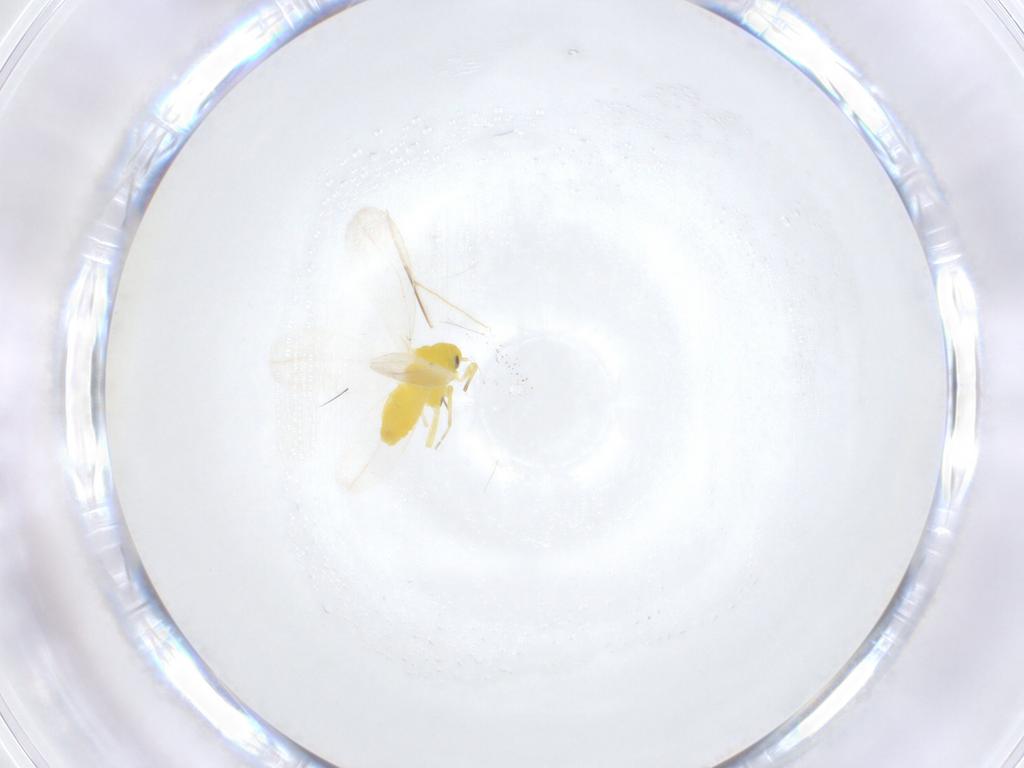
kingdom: Animalia
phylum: Arthropoda
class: Insecta
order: Hemiptera
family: Aleyrodidae
